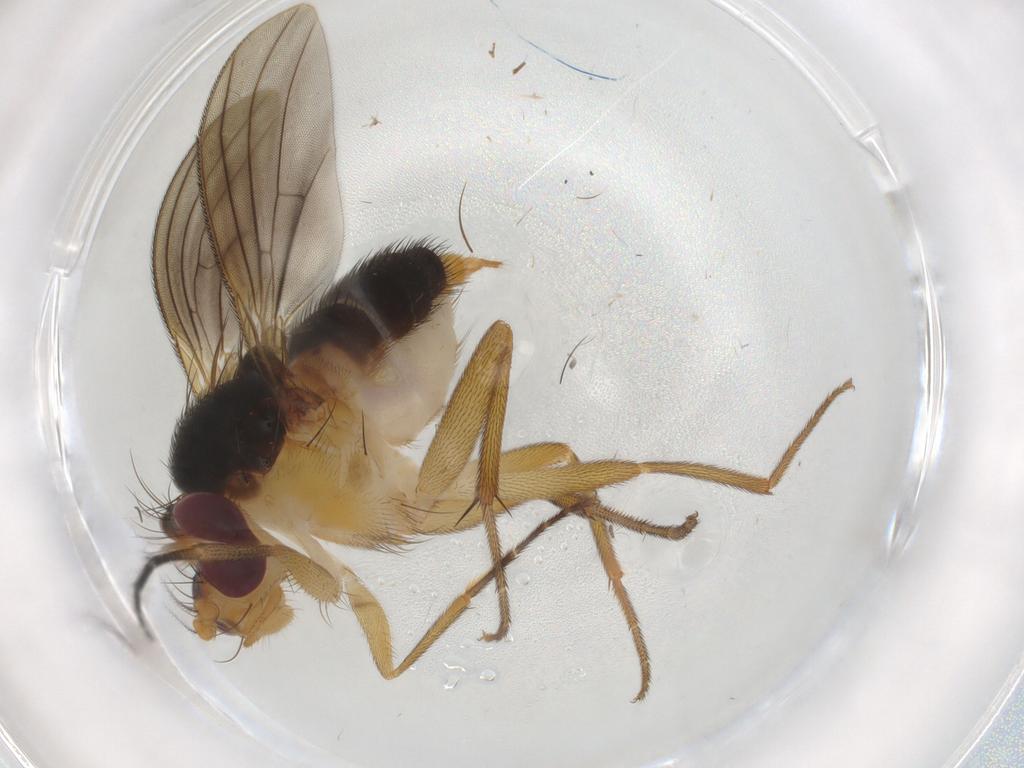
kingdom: Animalia
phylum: Arthropoda
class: Insecta
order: Diptera
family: Clusiidae
